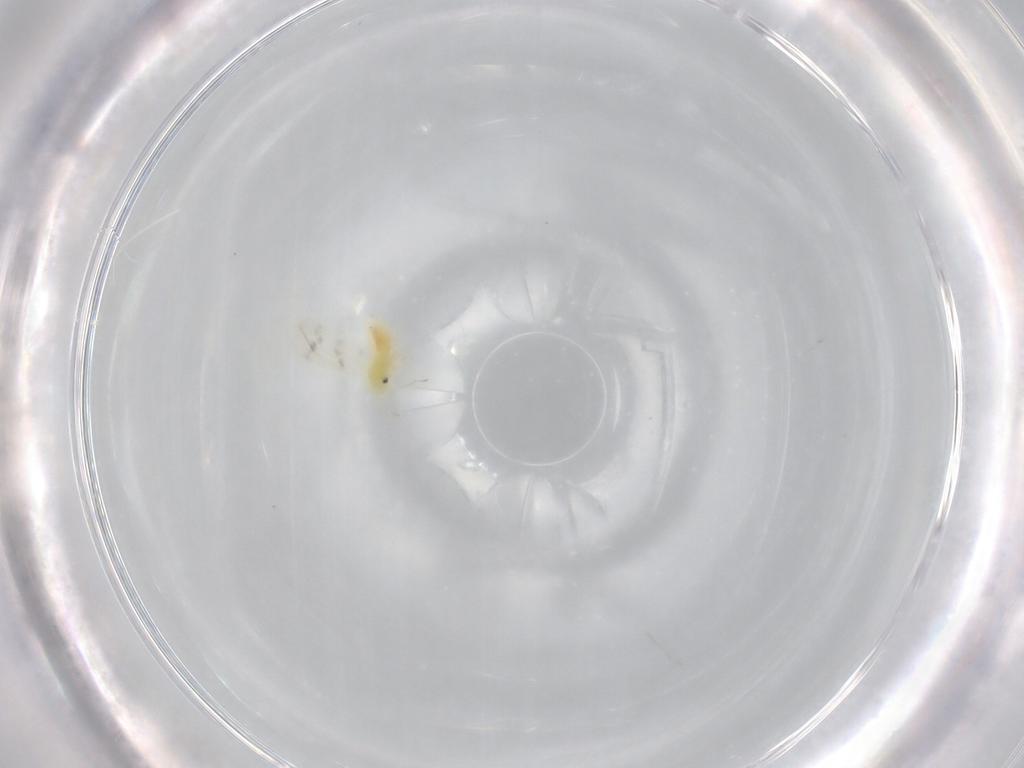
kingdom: Animalia
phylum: Arthropoda
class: Insecta
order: Hemiptera
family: Aleyrodidae
